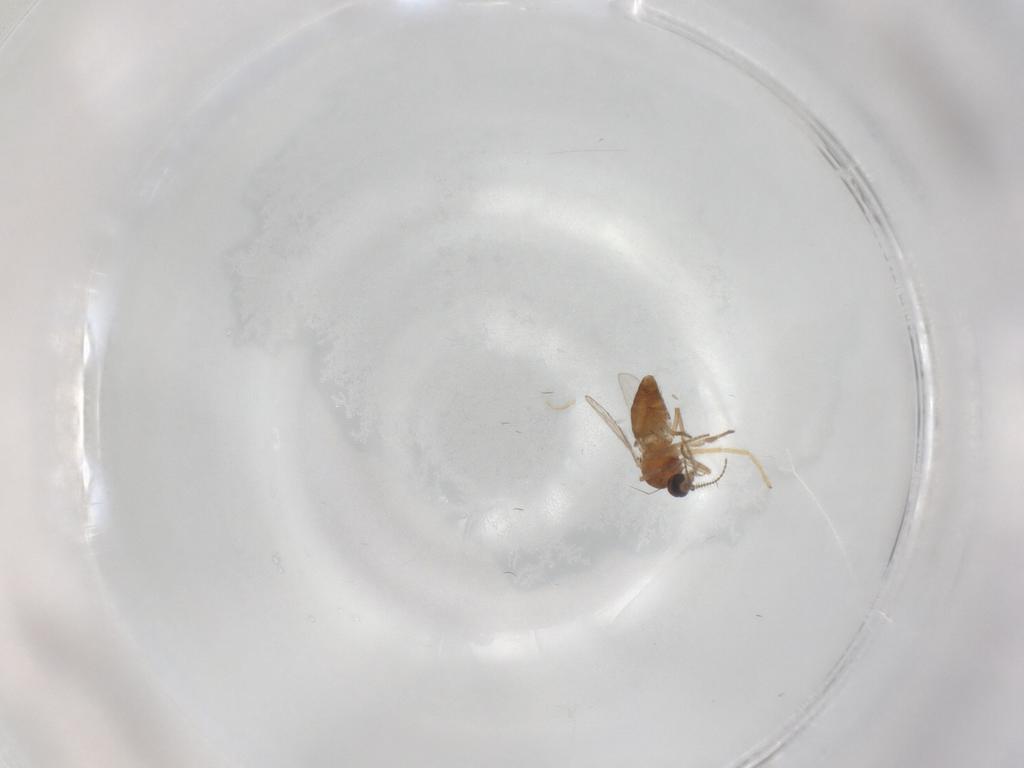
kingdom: Animalia
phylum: Arthropoda
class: Insecta
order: Diptera
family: Ceratopogonidae
